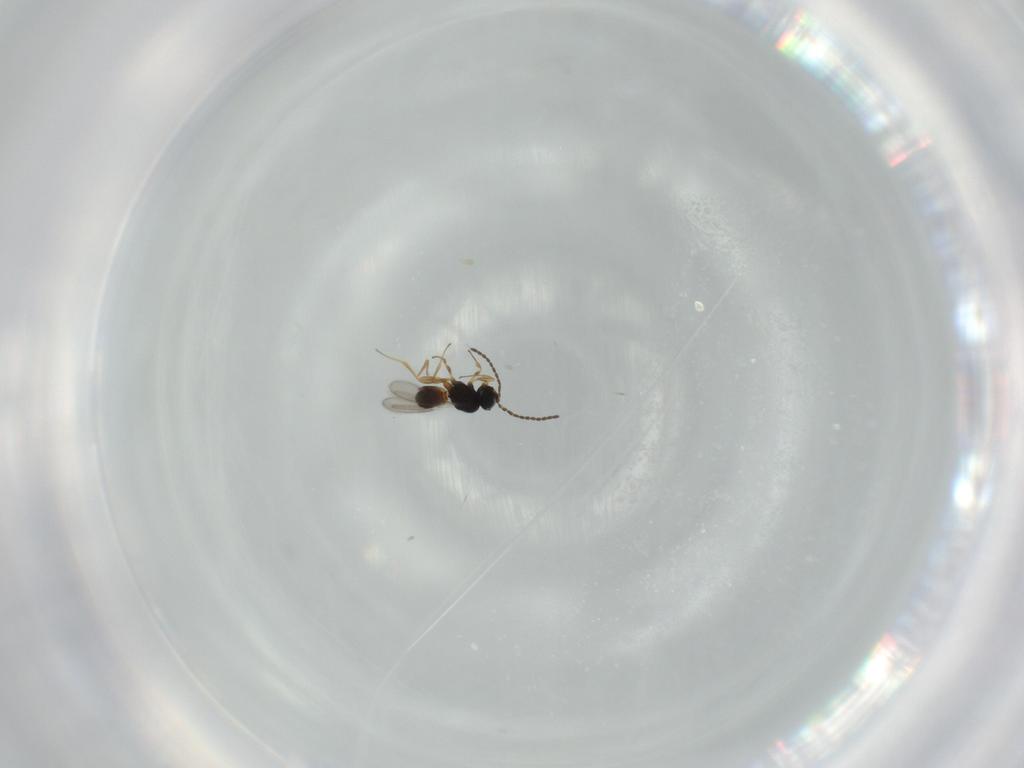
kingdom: Animalia
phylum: Arthropoda
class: Insecta
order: Hymenoptera
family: Scelionidae
